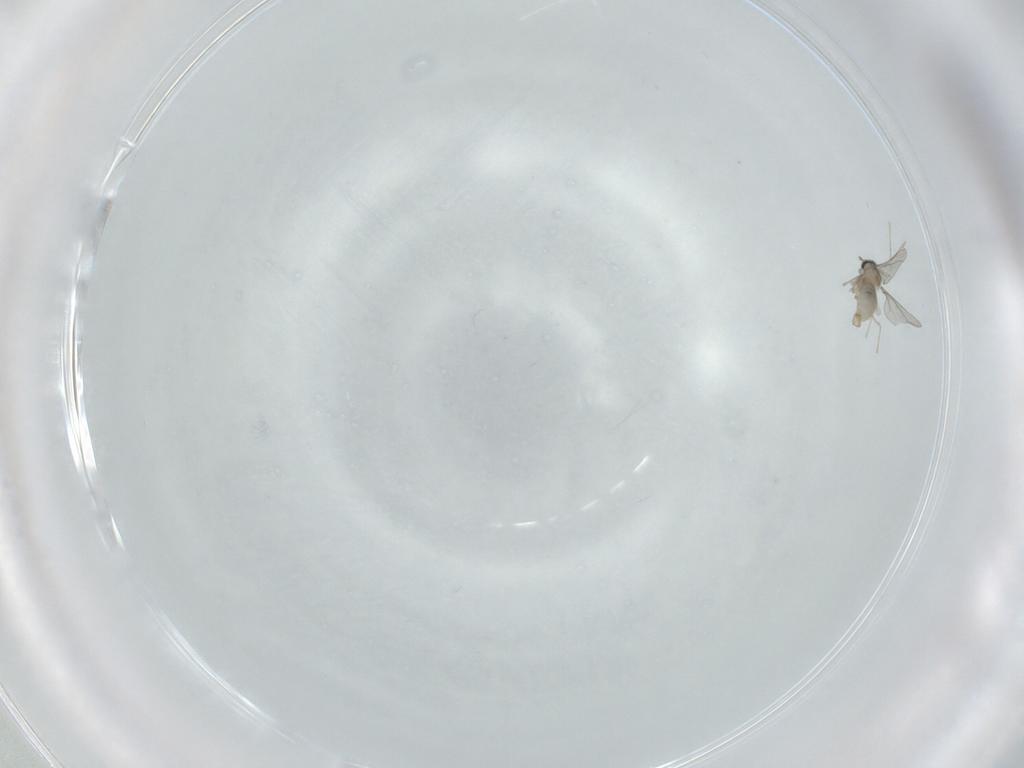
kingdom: Animalia
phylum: Arthropoda
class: Insecta
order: Diptera
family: Cecidomyiidae
